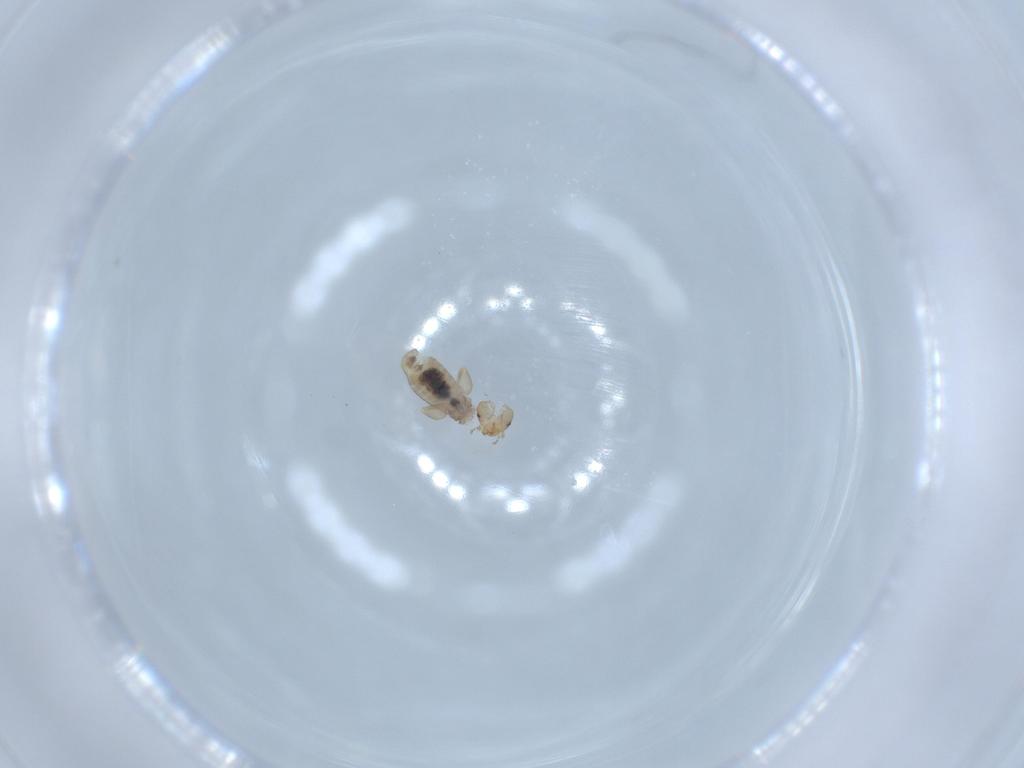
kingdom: Animalia
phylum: Arthropoda
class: Insecta
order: Psocodea
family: Liposcelididae
